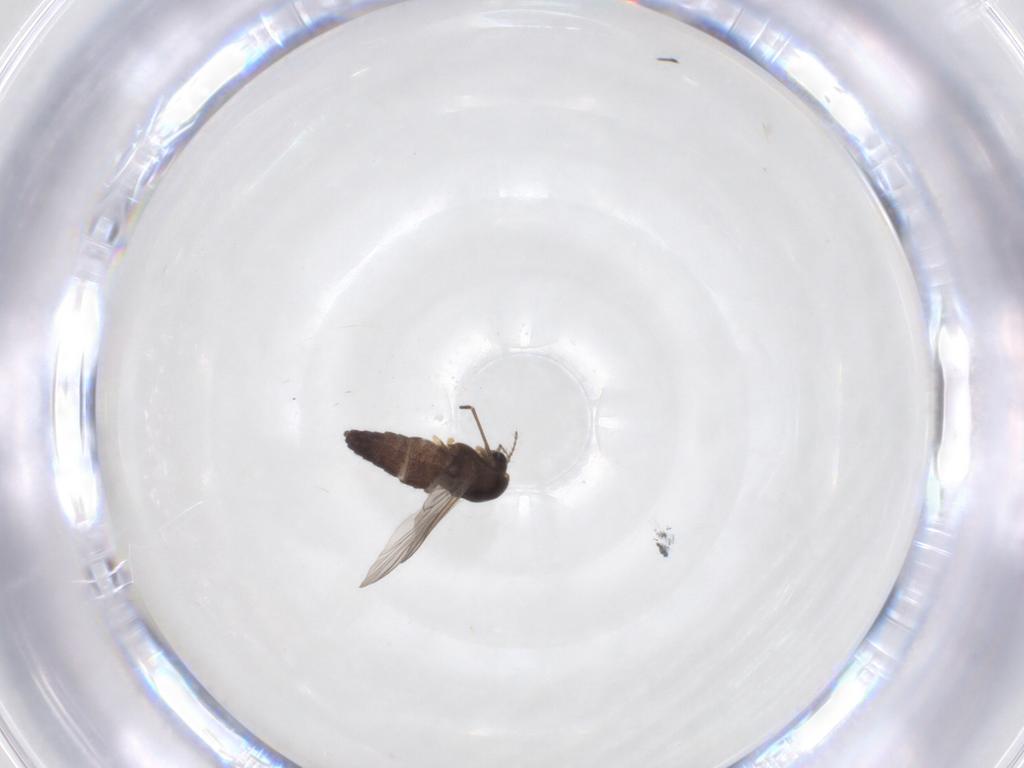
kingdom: Animalia
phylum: Arthropoda
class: Insecta
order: Diptera
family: Chironomidae
